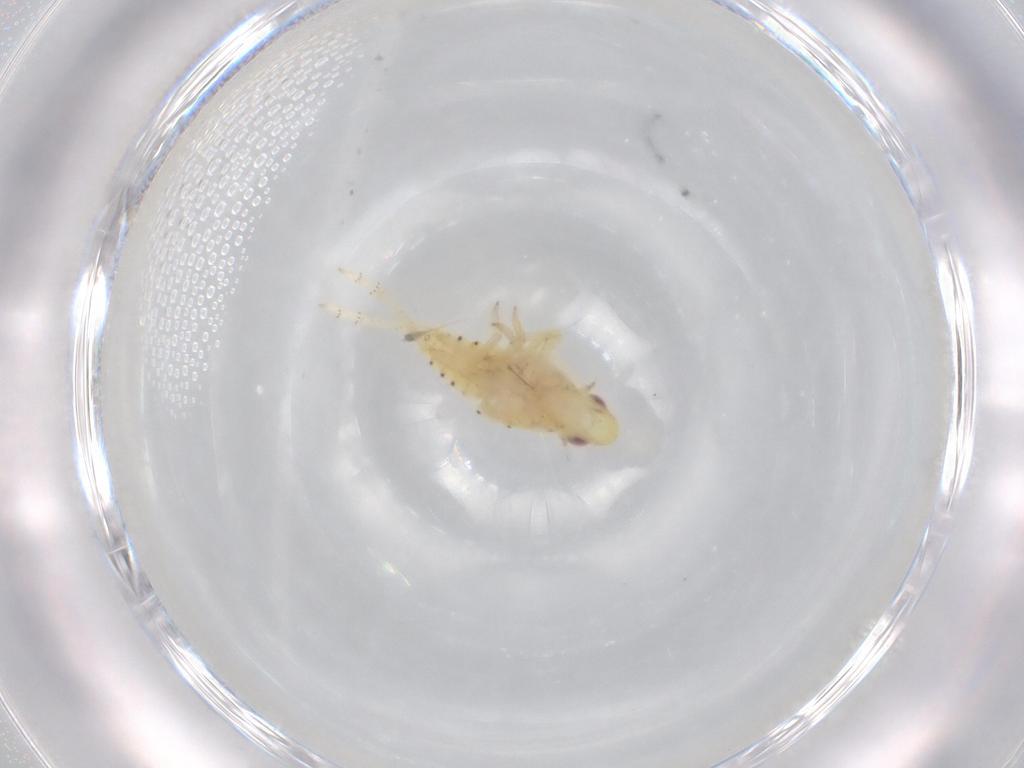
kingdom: Animalia
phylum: Arthropoda
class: Insecta
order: Hemiptera
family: Tropiduchidae
